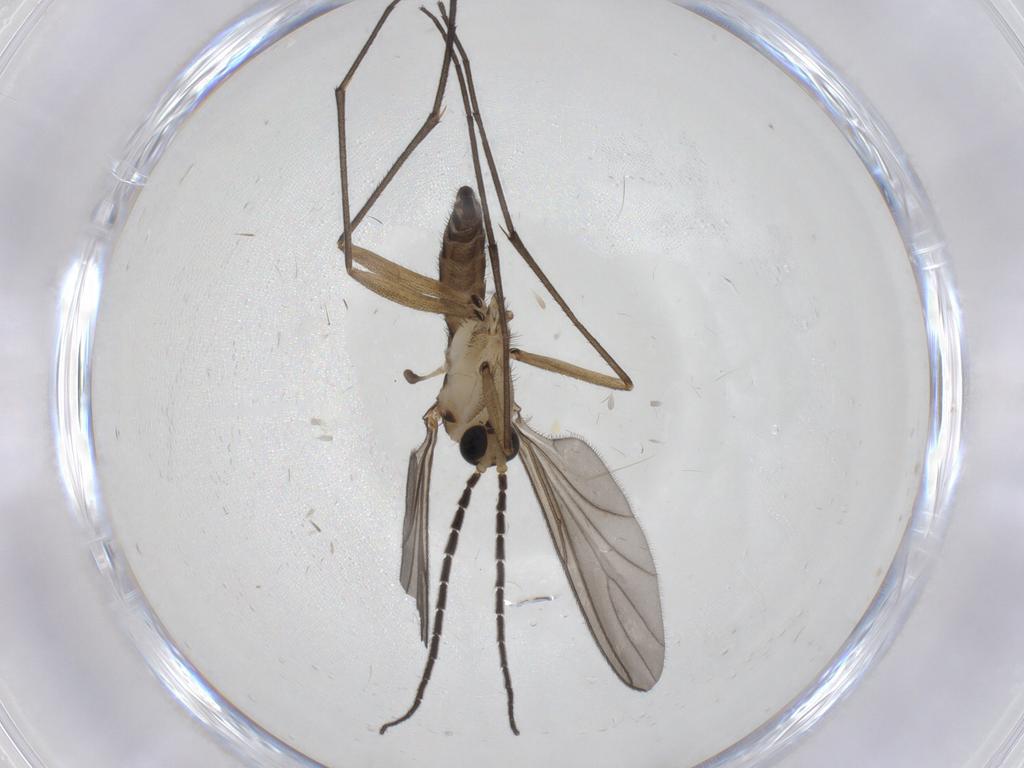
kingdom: Animalia
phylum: Arthropoda
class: Insecta
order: Diptera
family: Sciaridae
